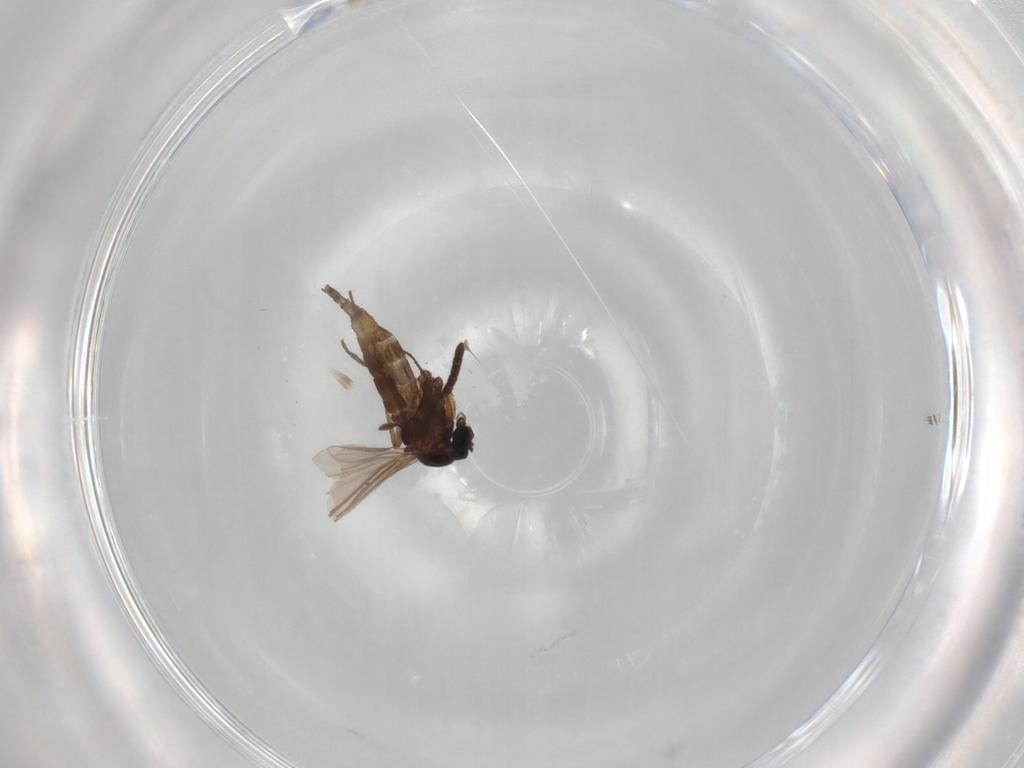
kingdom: Animalia
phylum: Arthropoda
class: Insecta
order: Diptera
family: Sciaridae
